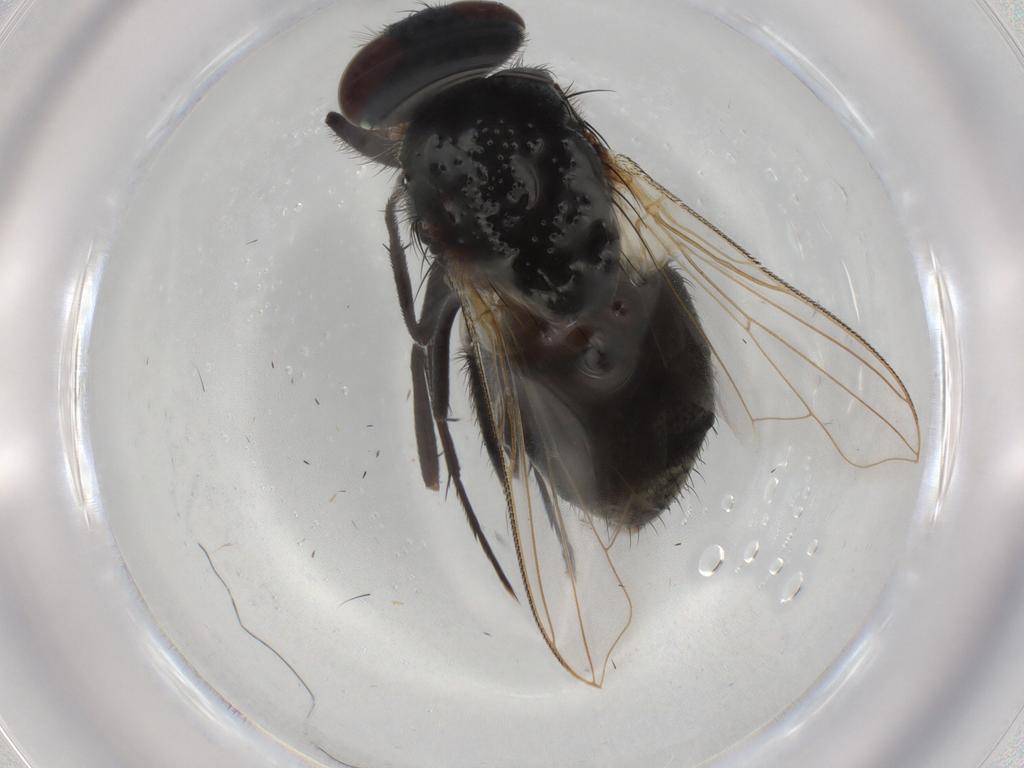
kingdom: Animalia
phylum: Arthropoda
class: Insecta
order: Diptera
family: Muscidae
